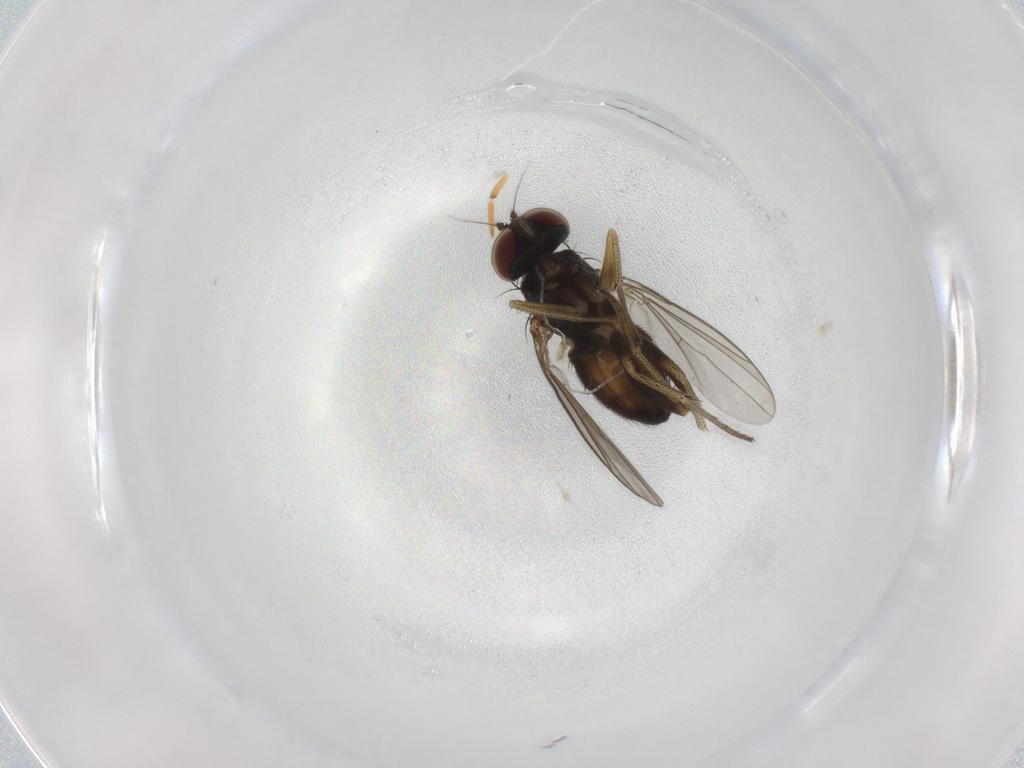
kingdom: Animalia
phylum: Arthropoda
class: Insecta
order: Diptera
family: Dolichopodidae
